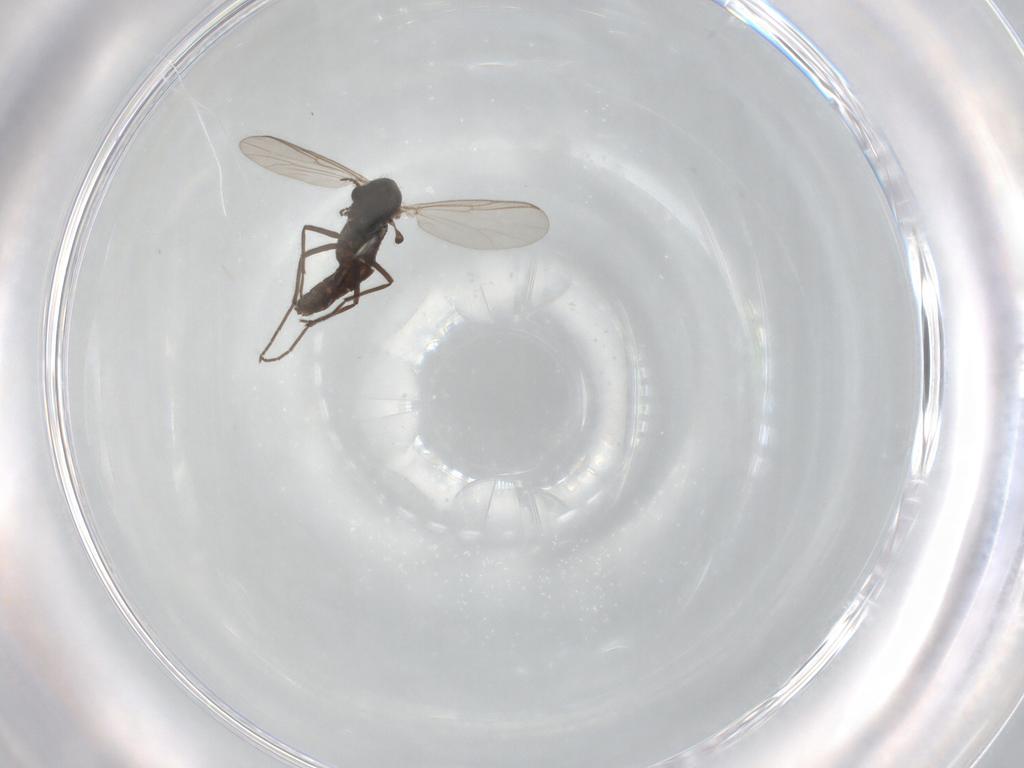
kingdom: Animalia
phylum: Arthropoda
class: Insecta
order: Diptera
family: Chironomidae
